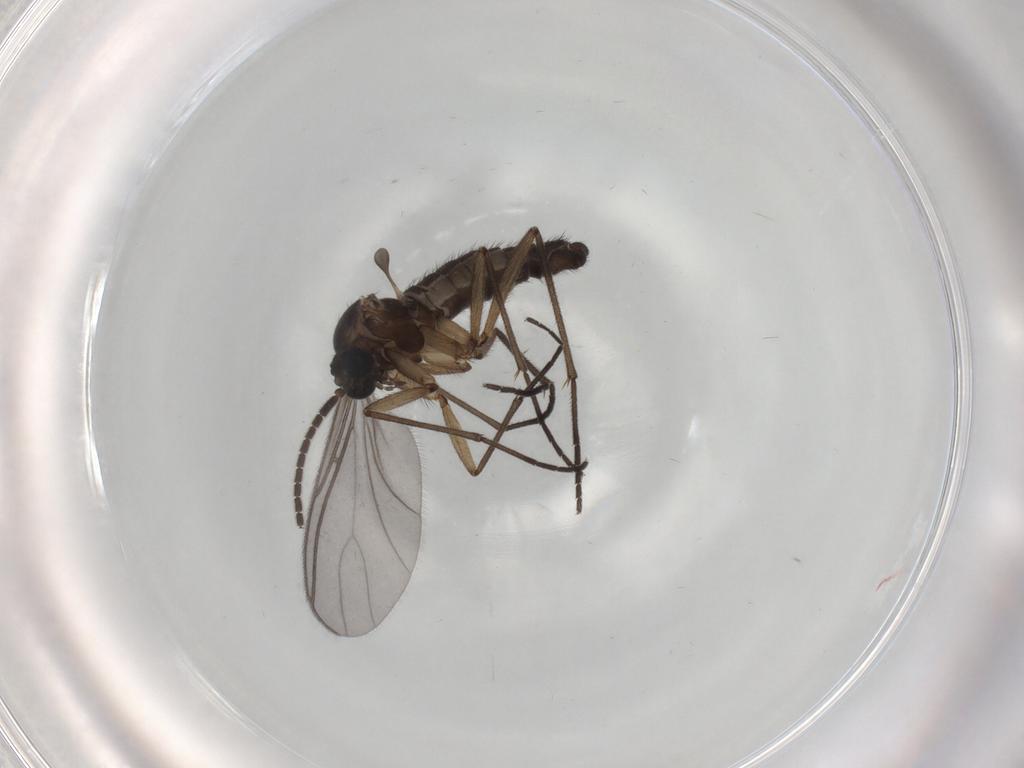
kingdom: Animalia
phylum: Arthropoda
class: Insecta
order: Diptera
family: Sciaridae
